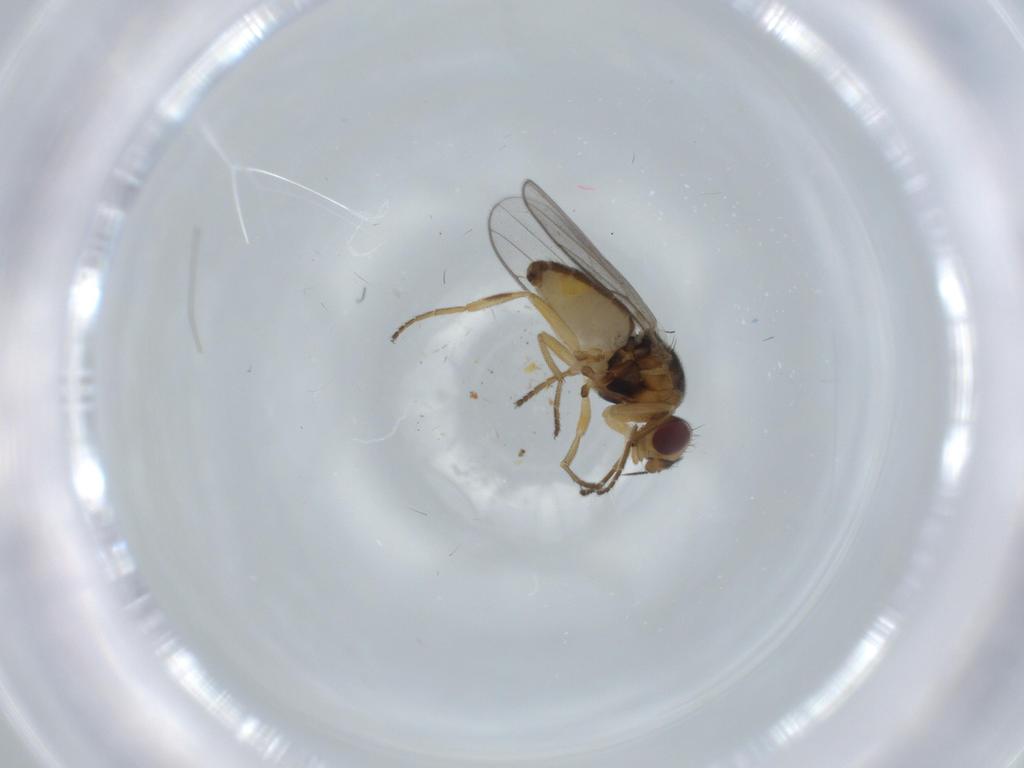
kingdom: Animalia
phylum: Arthropoda
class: Insecta
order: Diptera
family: Chloropidae
